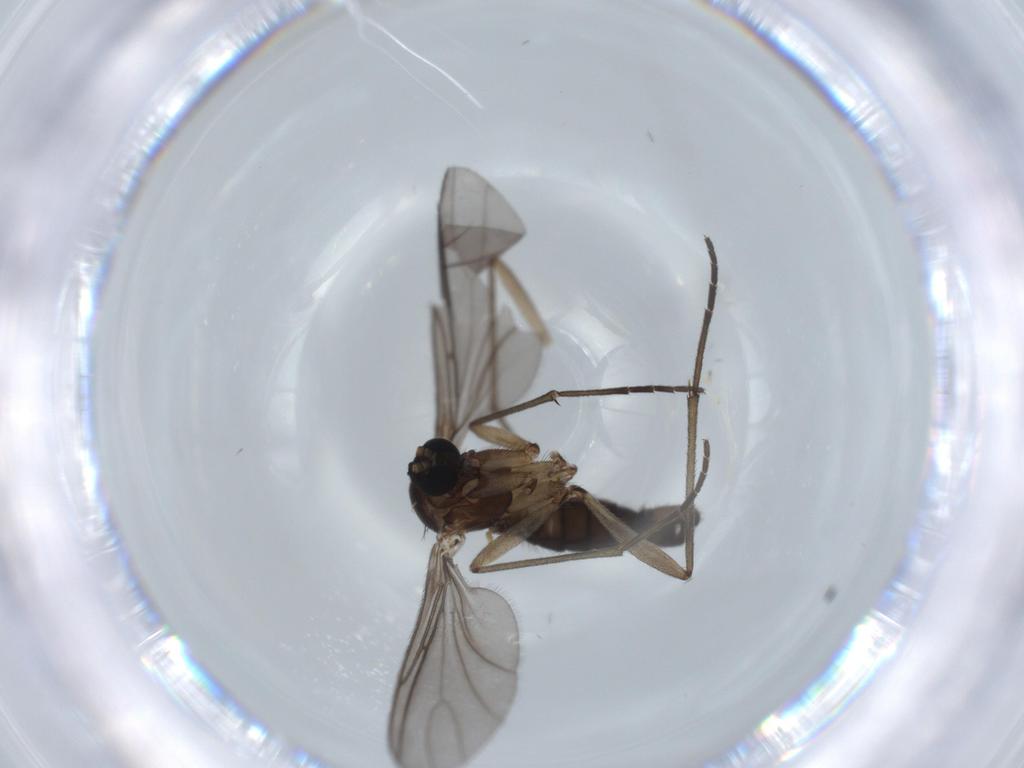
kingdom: Animalia
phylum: Arthropoda
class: Insecta
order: Diptera
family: Sciaridae
